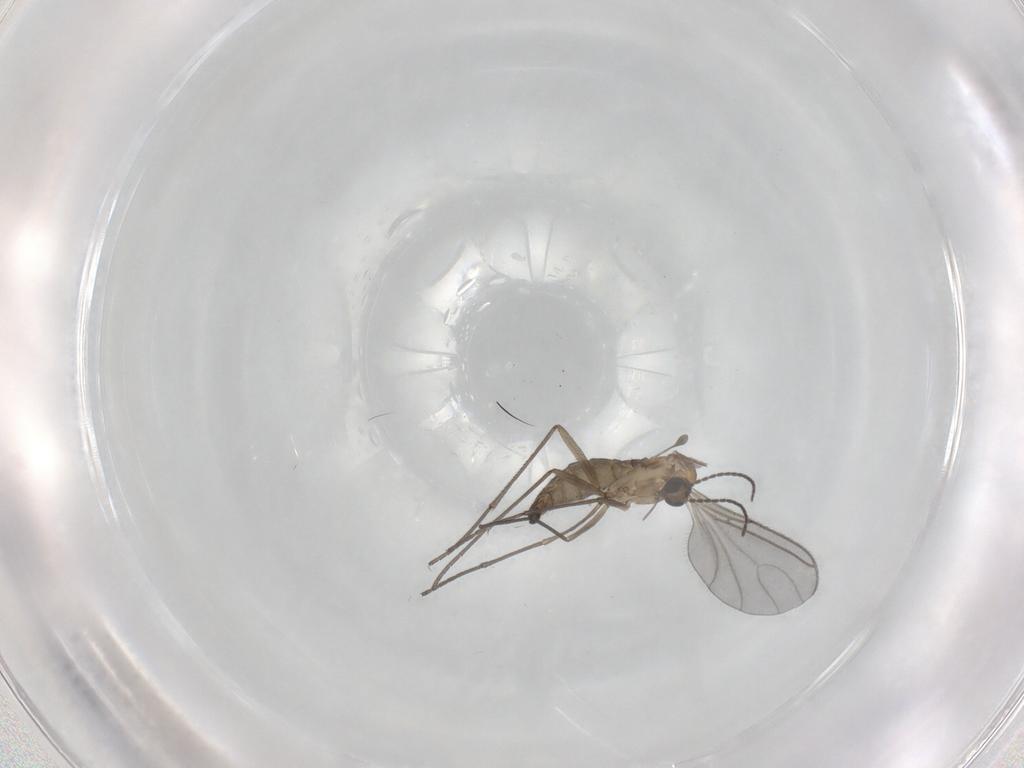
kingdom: Animalia
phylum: Arthropoda
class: Insecta
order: Diptera
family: Sciaridae
